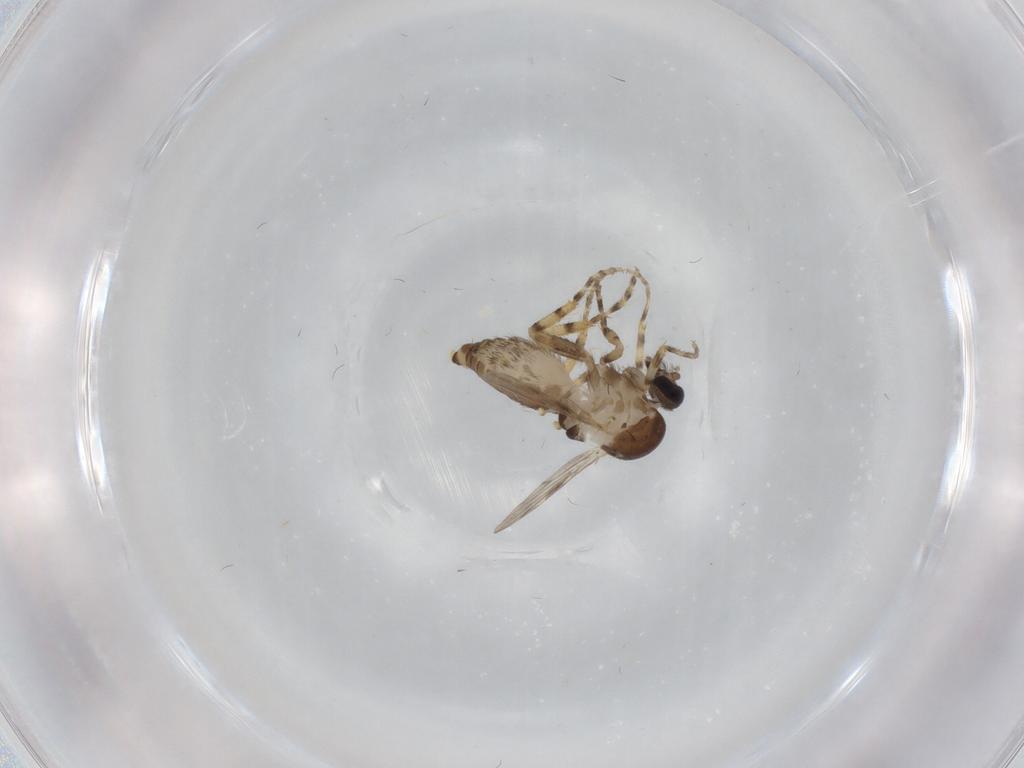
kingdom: Animalia
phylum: Arthropoda
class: Insecta
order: Diptera
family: Ceratopogonidae
